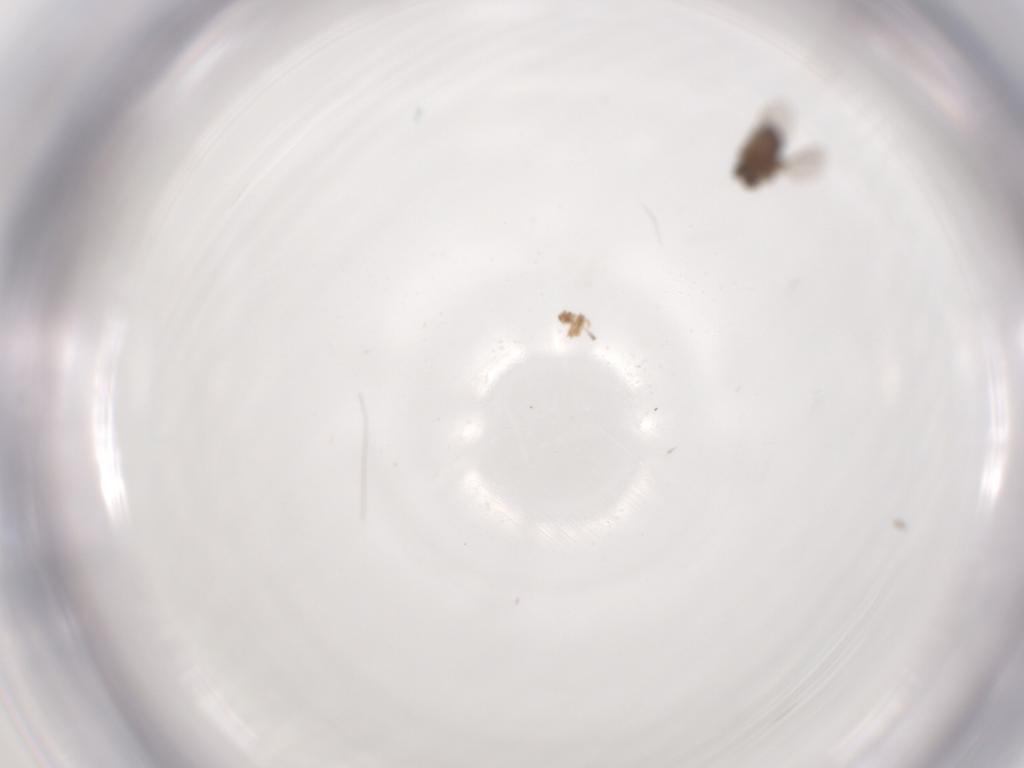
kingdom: Animalia
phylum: Arthropoda
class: Insecta
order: Diptera
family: Ceratopogonidae
